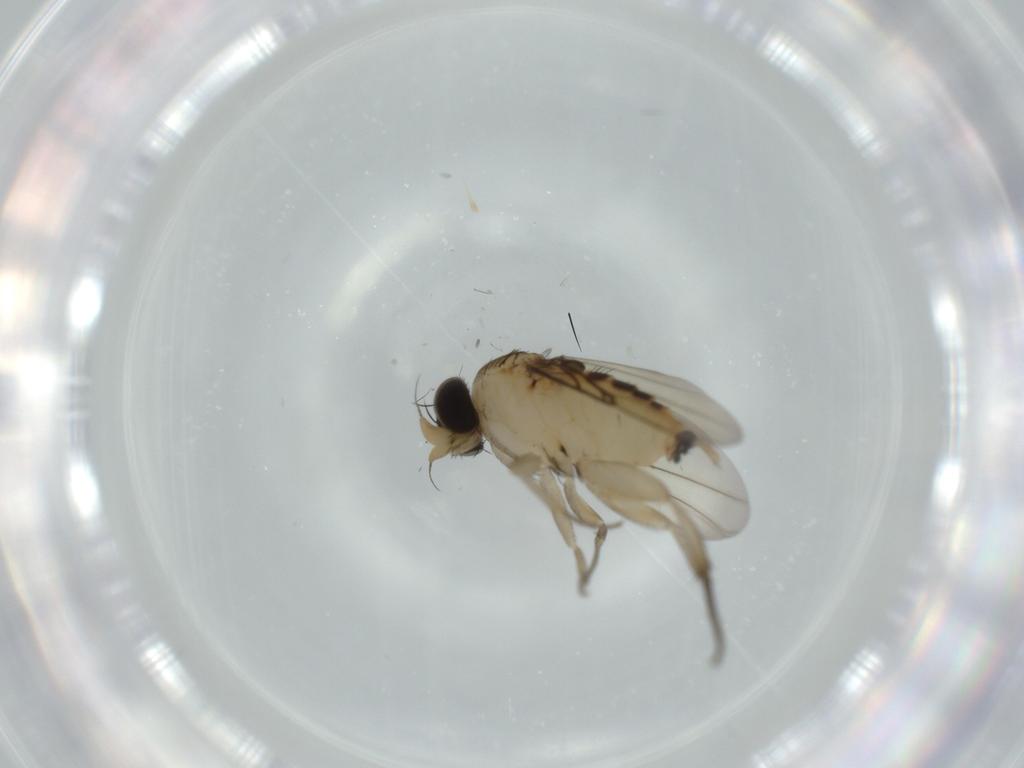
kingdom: Animalia
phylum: Arthropoda
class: Insecta
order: Diptera
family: Phoridae
